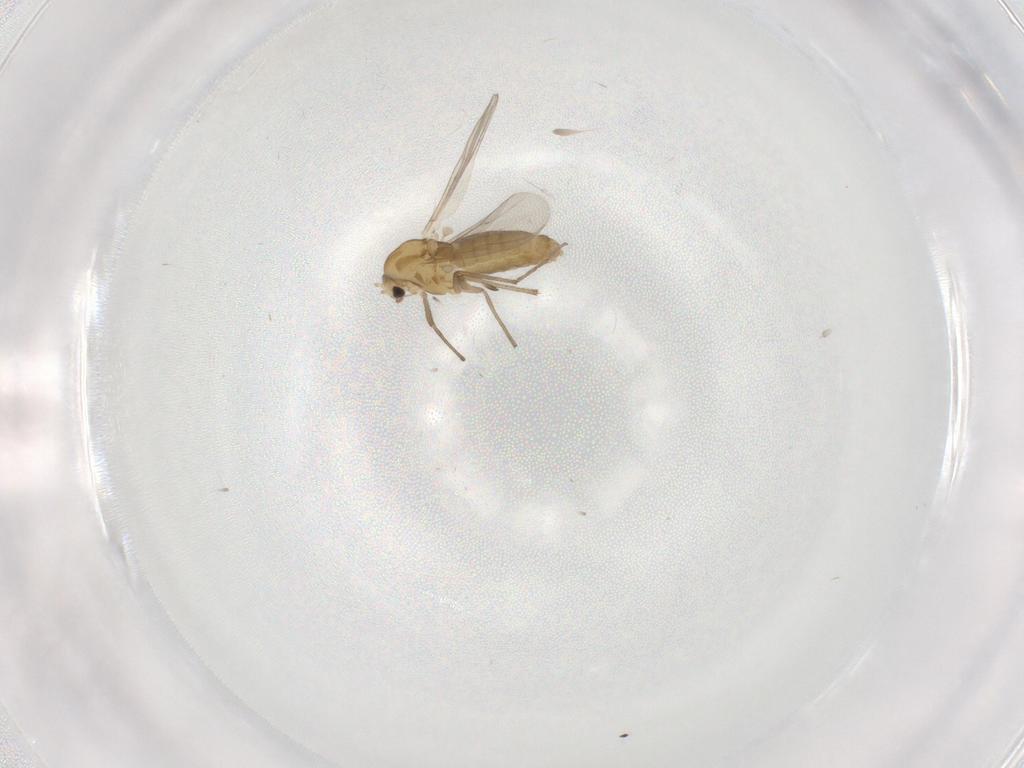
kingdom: Animalia
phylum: Arthropoda
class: Insecta
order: Diptera
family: Chironomidae
